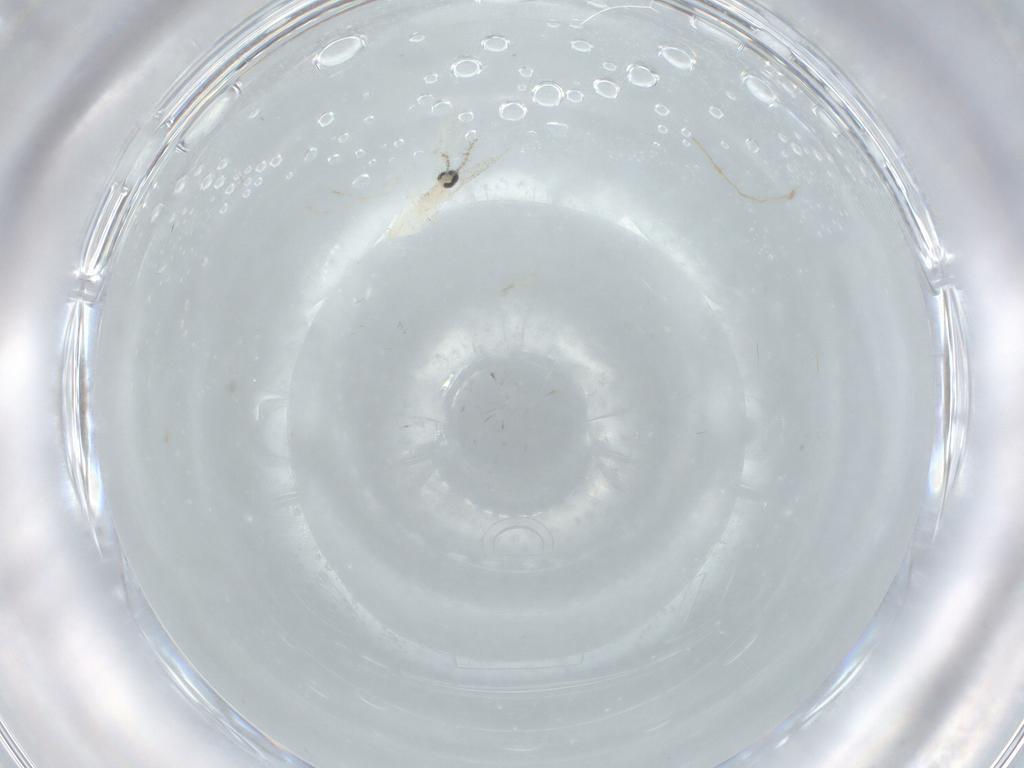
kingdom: Animalia
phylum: Arthropoda
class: Insecta
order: Diptera
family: Cecidomyiidae
